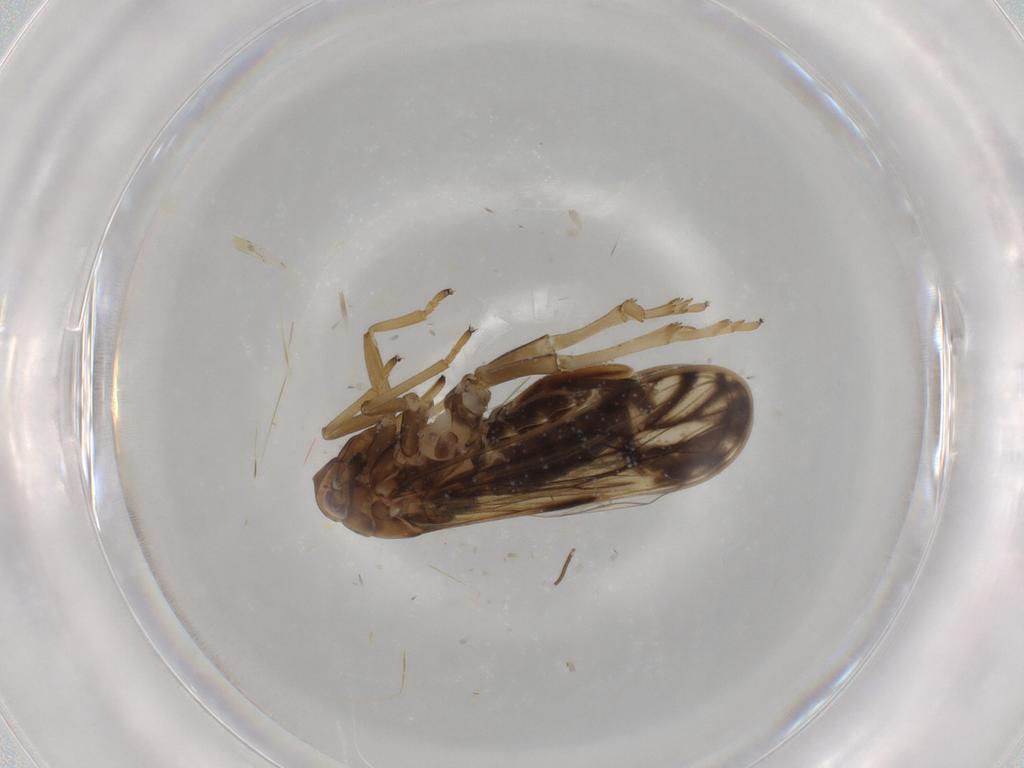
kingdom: Animalia
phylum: Arthropoda
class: Insecta
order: Hemiptera
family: Delphacidae
